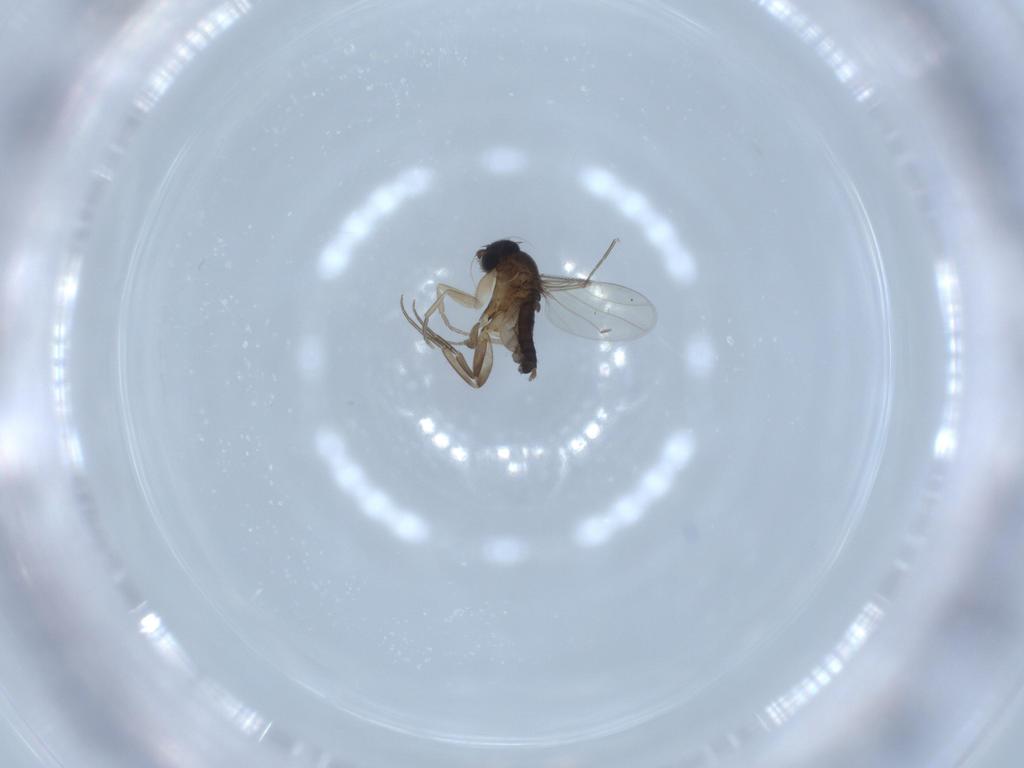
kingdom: Animalia
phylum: Arthropoda
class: Insecta
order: Diptera
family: Phoridae
